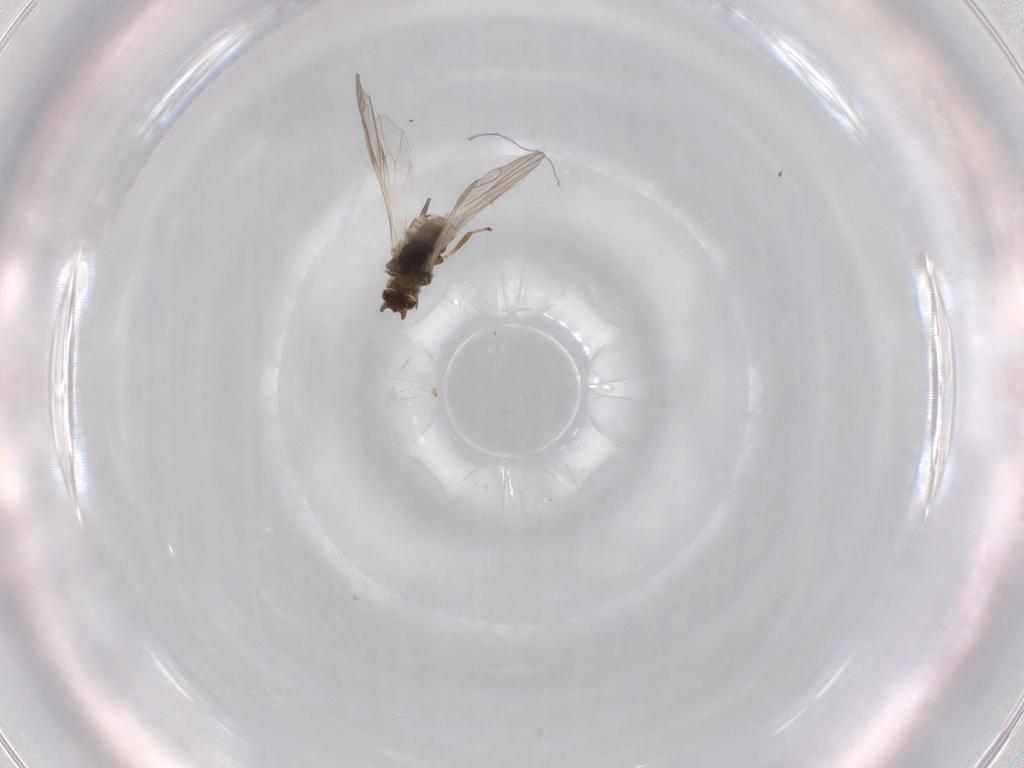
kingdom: Animalia
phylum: Arthropoda
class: Insecta
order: Hemiptera
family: Aphididae
